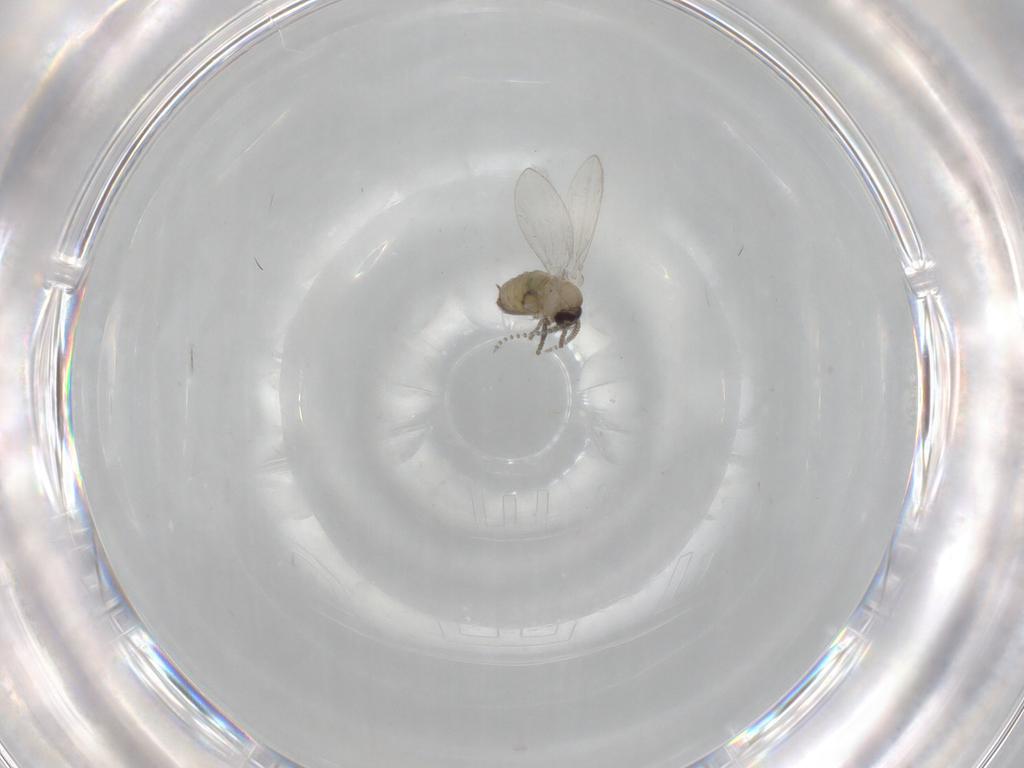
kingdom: Animalia
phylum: Arthropoda
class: Insecta
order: Diptera
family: Psychodidae
